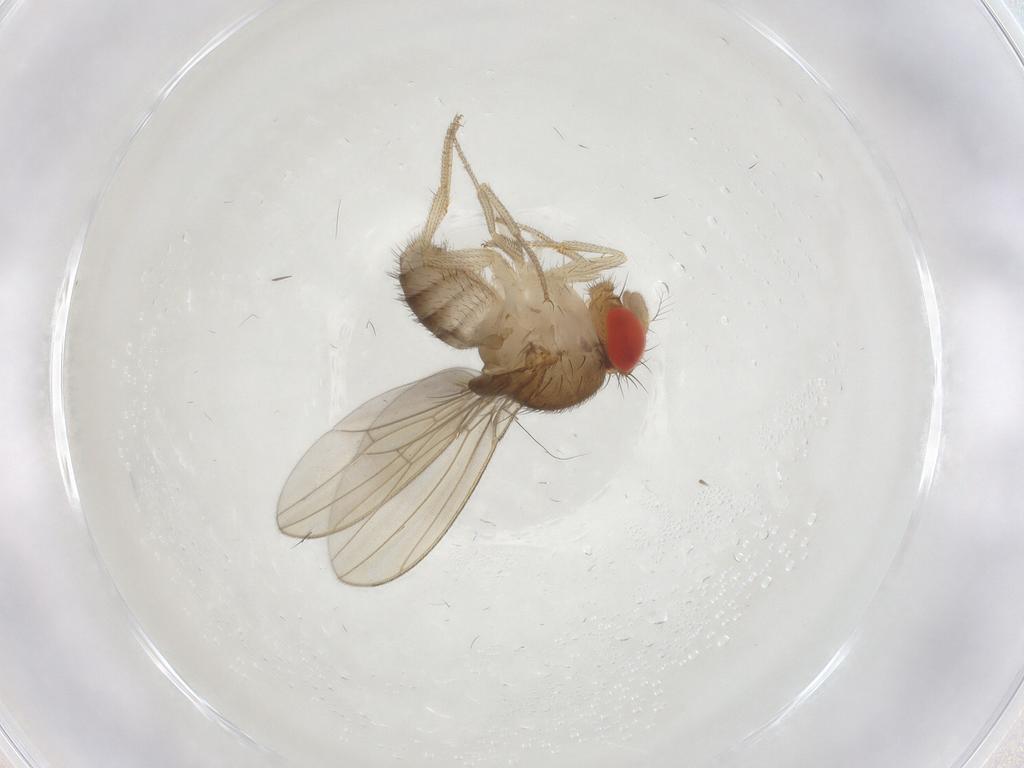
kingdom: Animalia
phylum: Arthropoda
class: Insecta
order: Diptera
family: Drosophilidae
